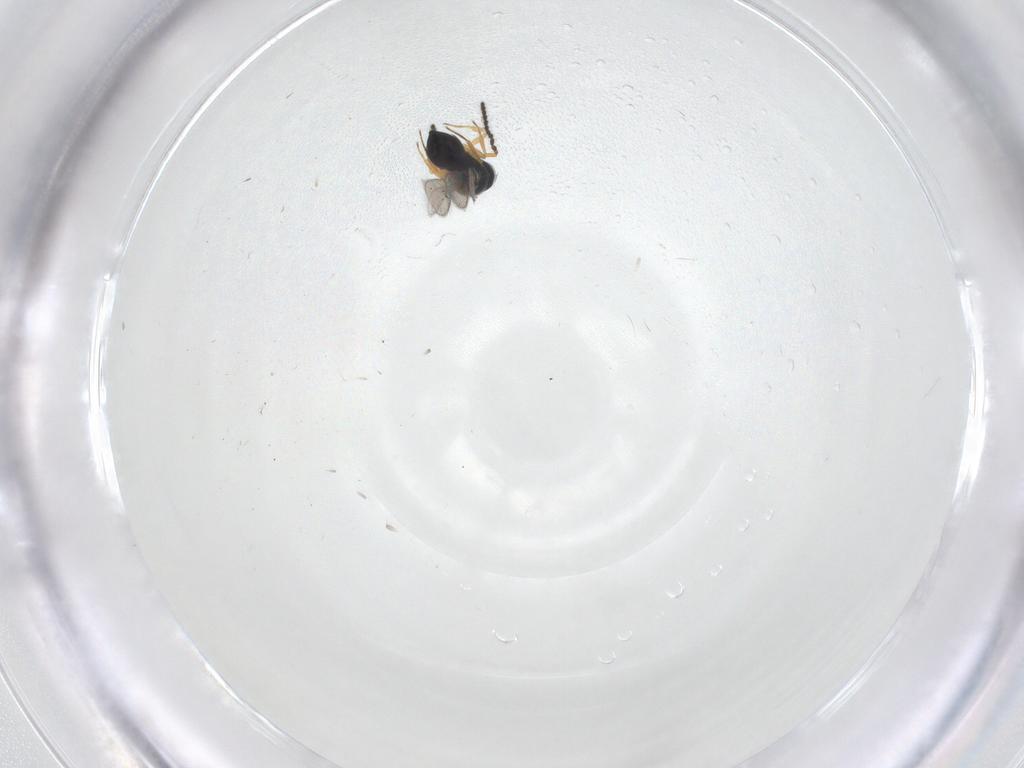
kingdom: Animalia
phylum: Arthropoda
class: Insecta
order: Hymenoptera
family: Scelionidae
